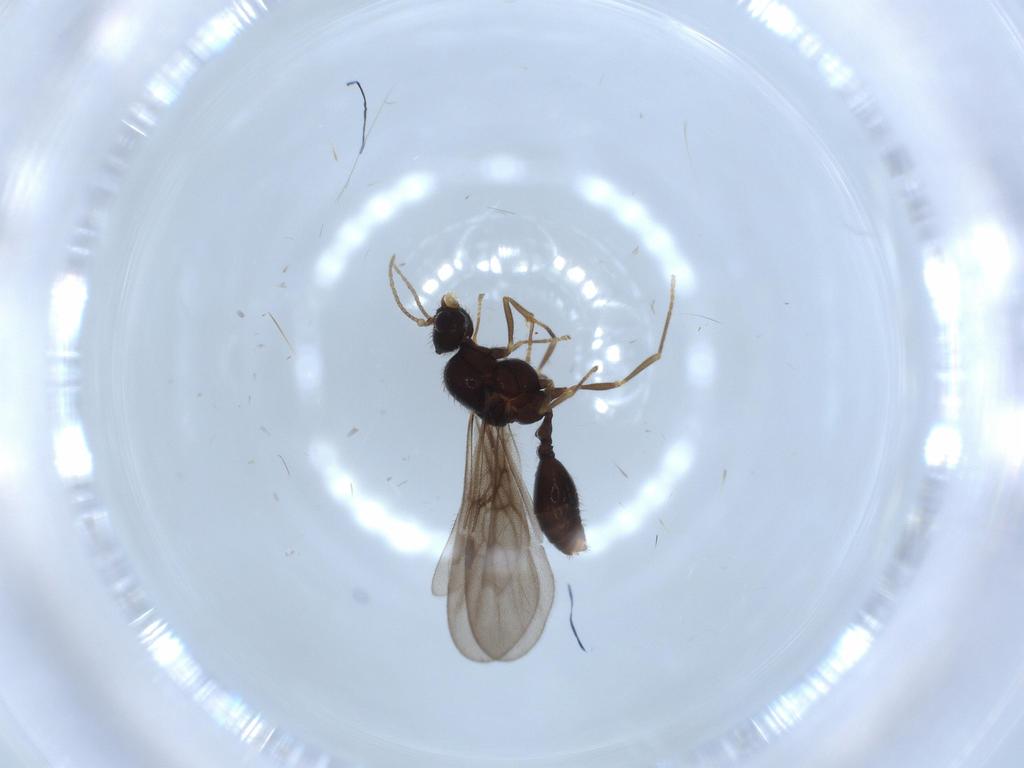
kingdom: Animalia
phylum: Arthropoda
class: Insecta
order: Hymenoptera
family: Formicidae
